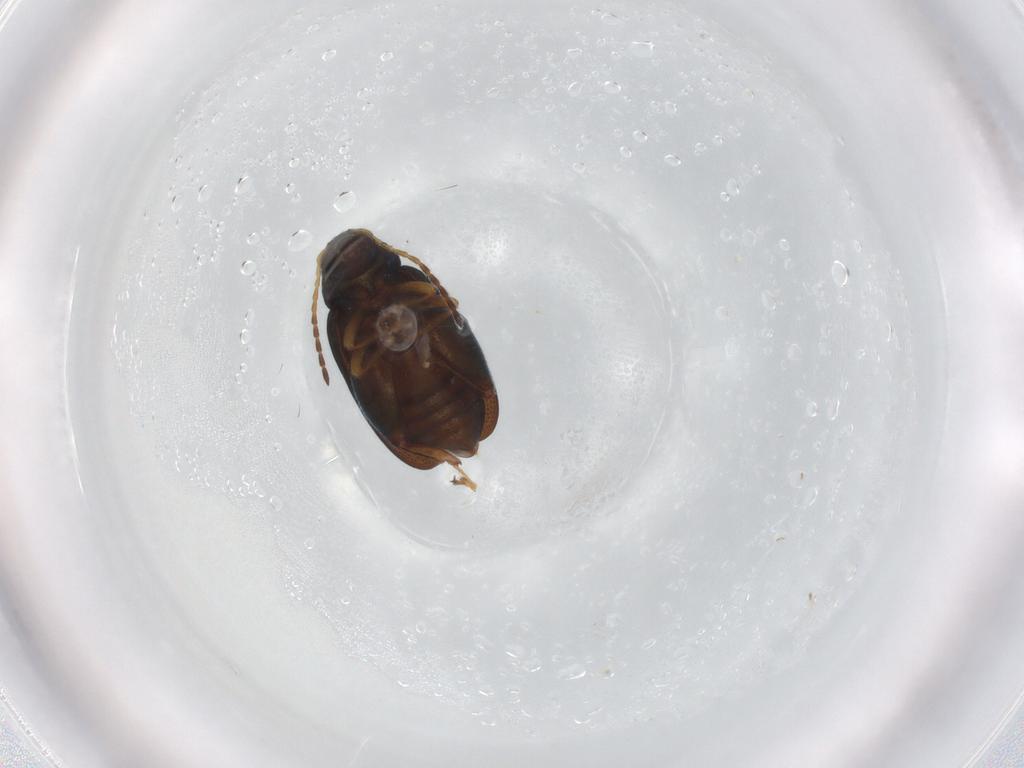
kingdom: Animalia
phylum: Arthropoda
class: Insecta
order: Coleoptera
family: Chrysomelidae
